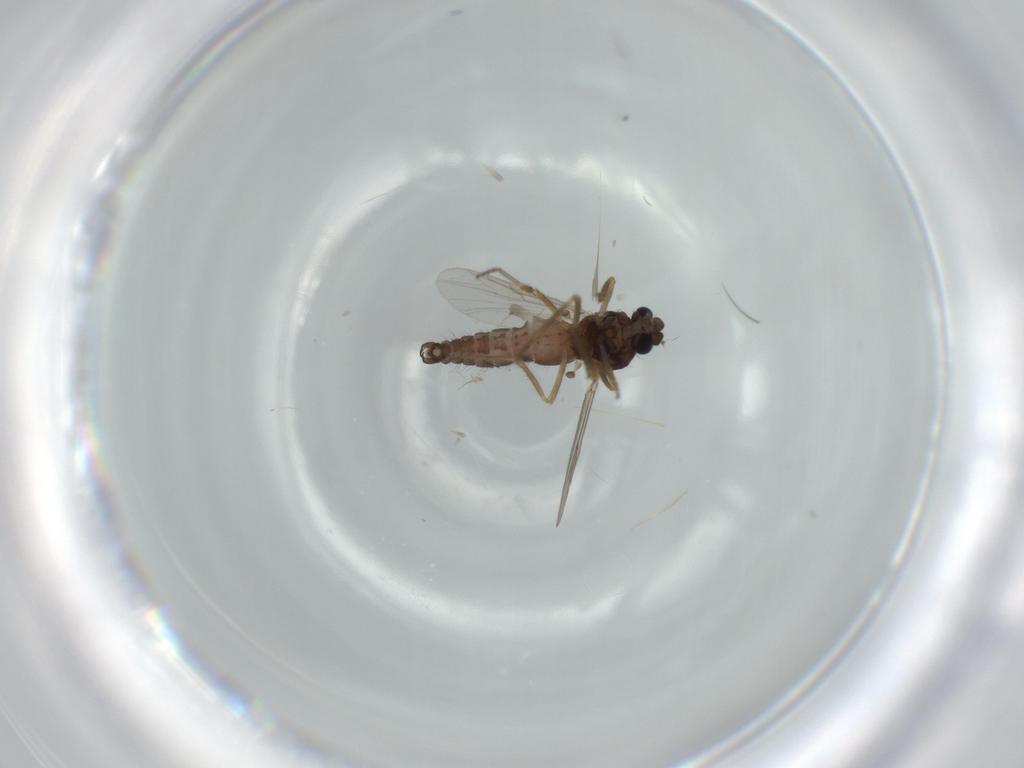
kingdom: Animalia
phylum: Arthropoda
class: Insecta
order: Diptera
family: Ceratopogonidae
